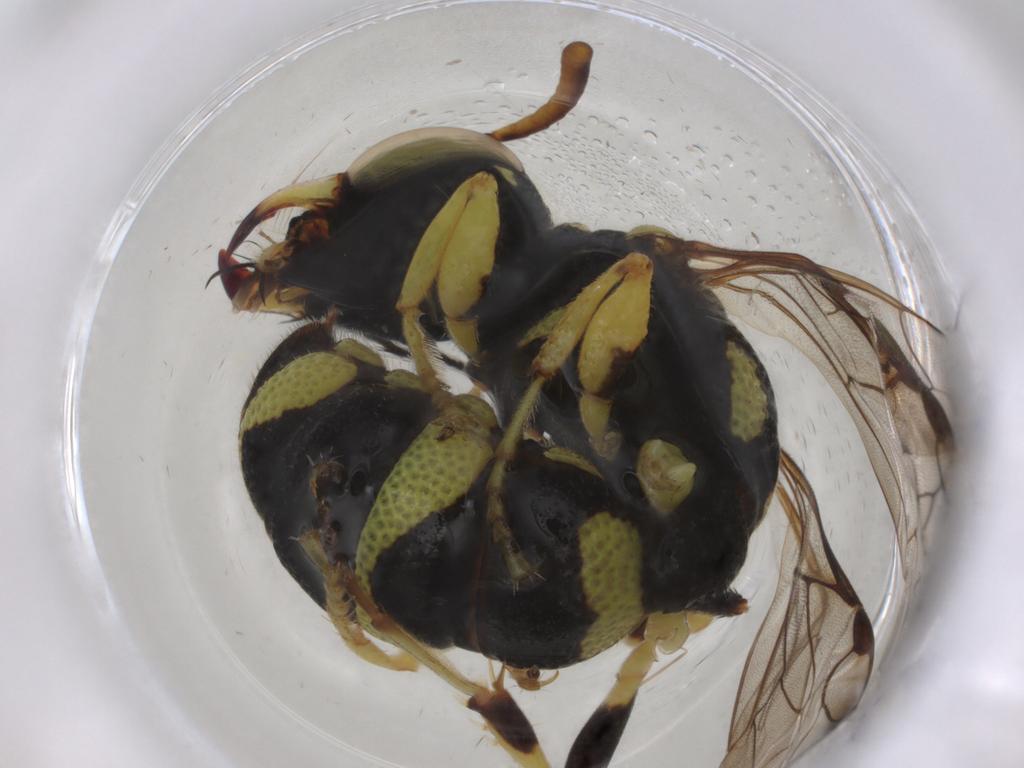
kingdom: Animalia
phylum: Arthropoda
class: Insecta
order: Hymenoptera
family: Philanthidae
